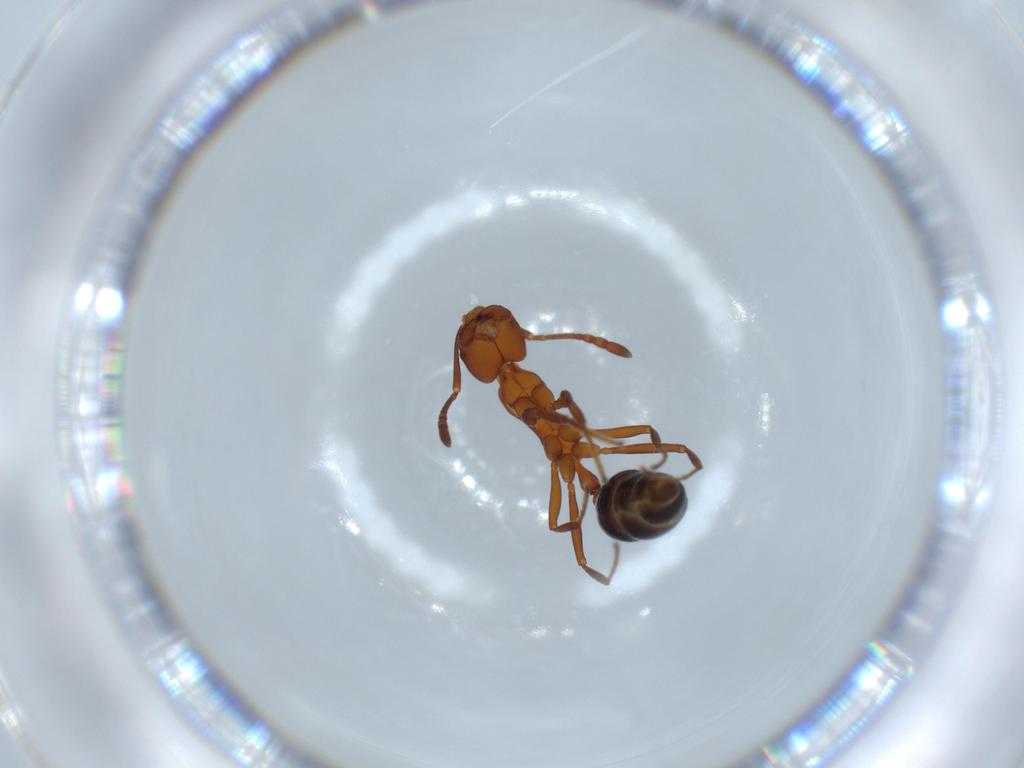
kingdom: Animalia
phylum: Arthropoda
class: Insecta
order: Hymenoptera
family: Formicidae
